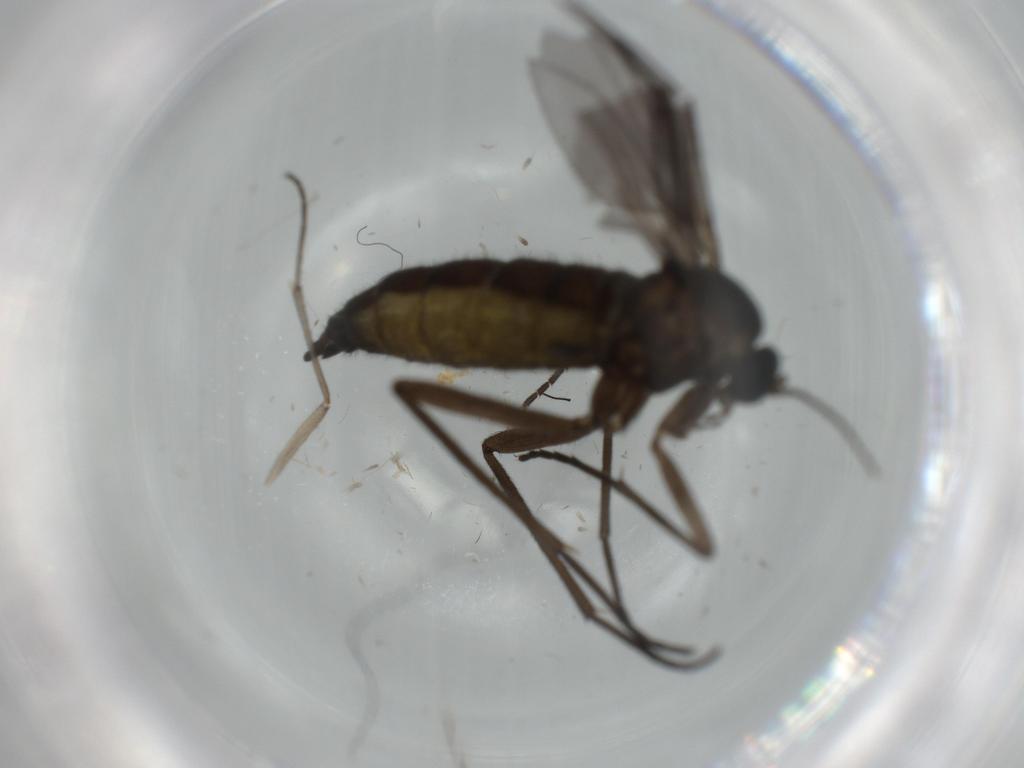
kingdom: Animalia
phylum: Arthropoda
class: Insecta
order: Diptera
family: Sciaridae
